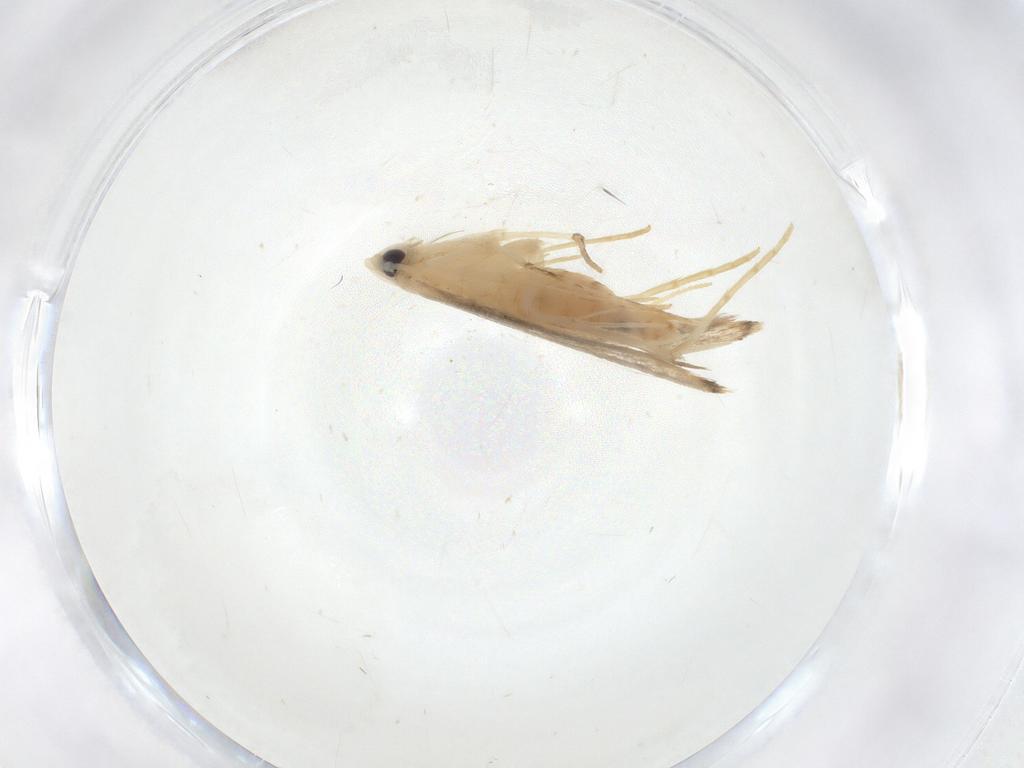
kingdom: Animalia
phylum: Arthropoda
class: Insecta
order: Lepidoptera
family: Lyonetiidae
